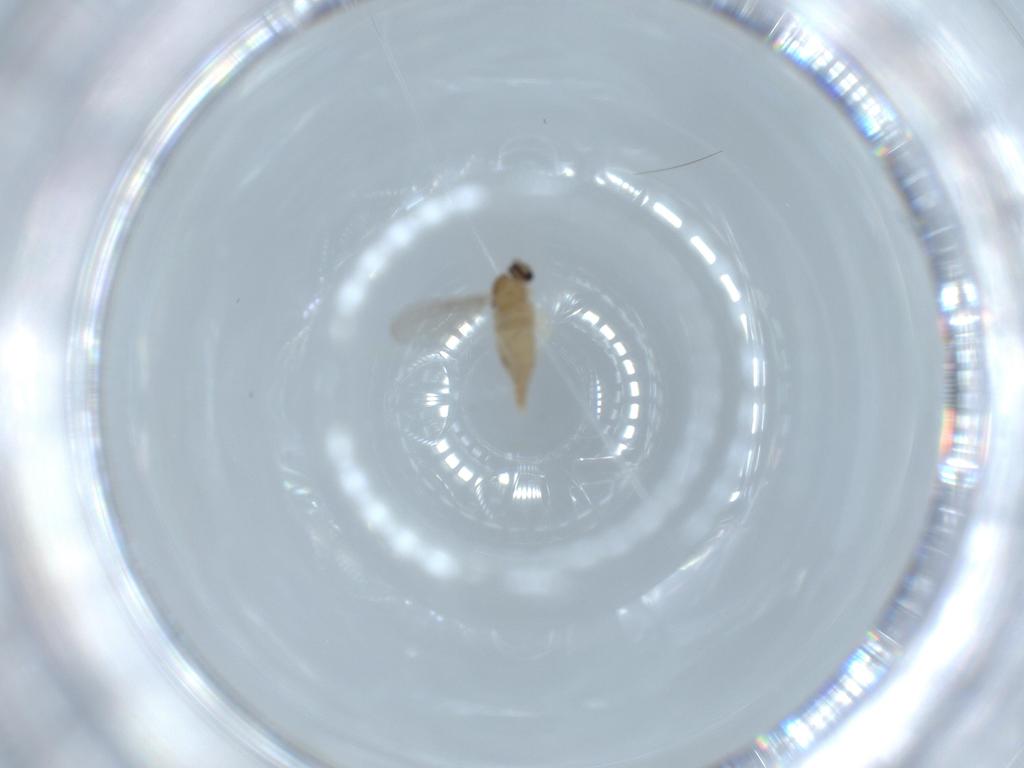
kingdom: Animalia
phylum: Arthropoda
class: Insecta
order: Diptera
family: Cecidomyiidae
